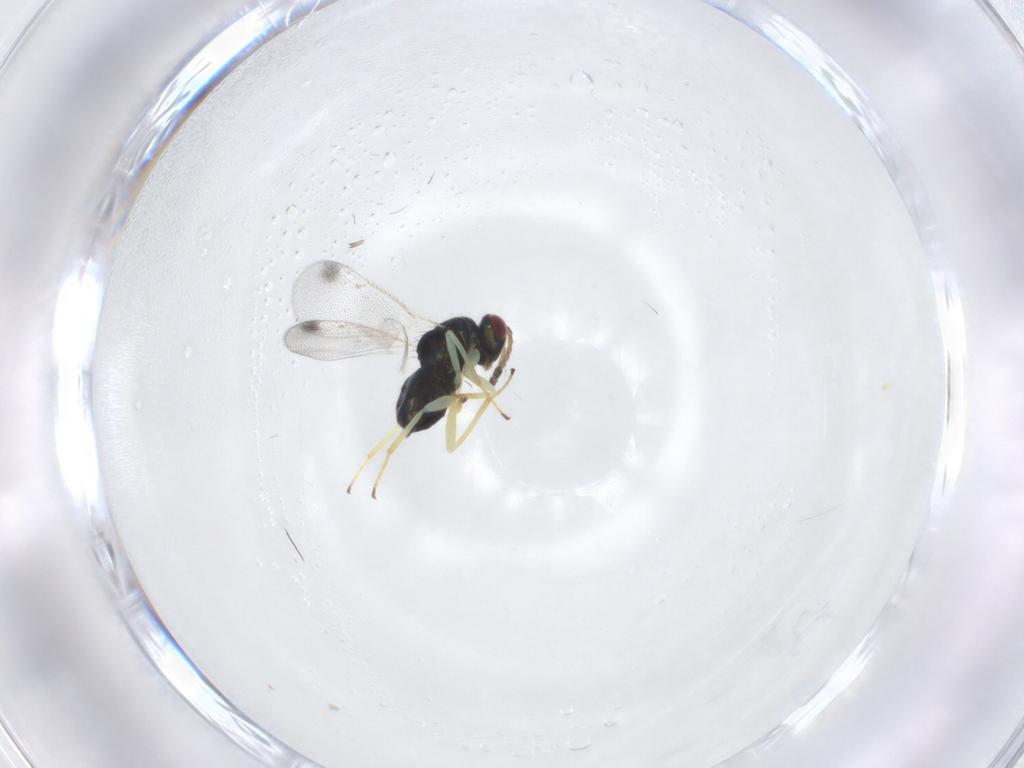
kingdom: Animalia
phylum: Arthropoda
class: Insecta
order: Hymenoptera
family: Eulophidae
